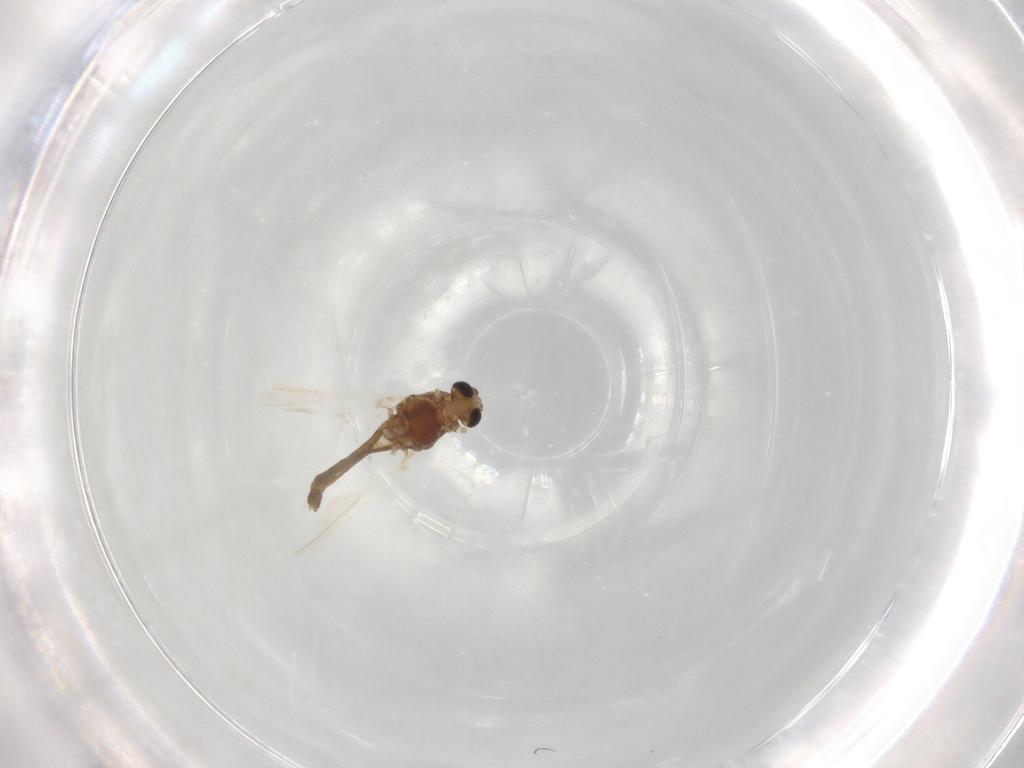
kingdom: Animalia
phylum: Arthropoda
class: Insecta
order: Diptera
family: Chironomidae
